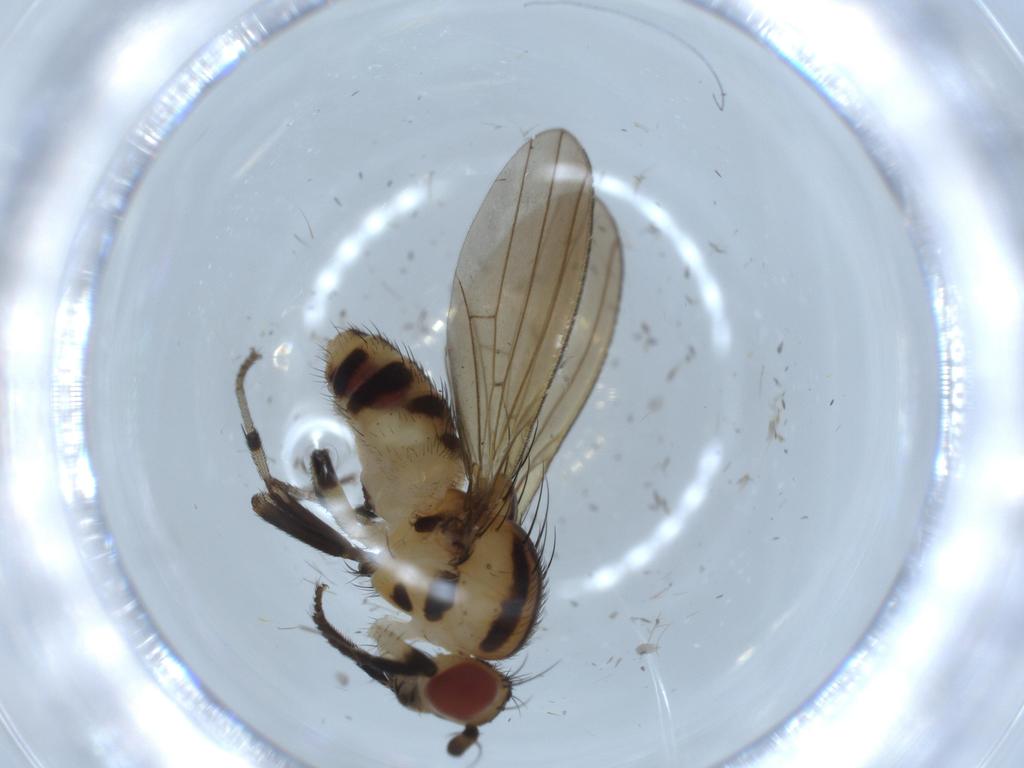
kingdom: Animalia
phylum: Arthropoda
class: Insecta
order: Diptera
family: Lauxaniidae
